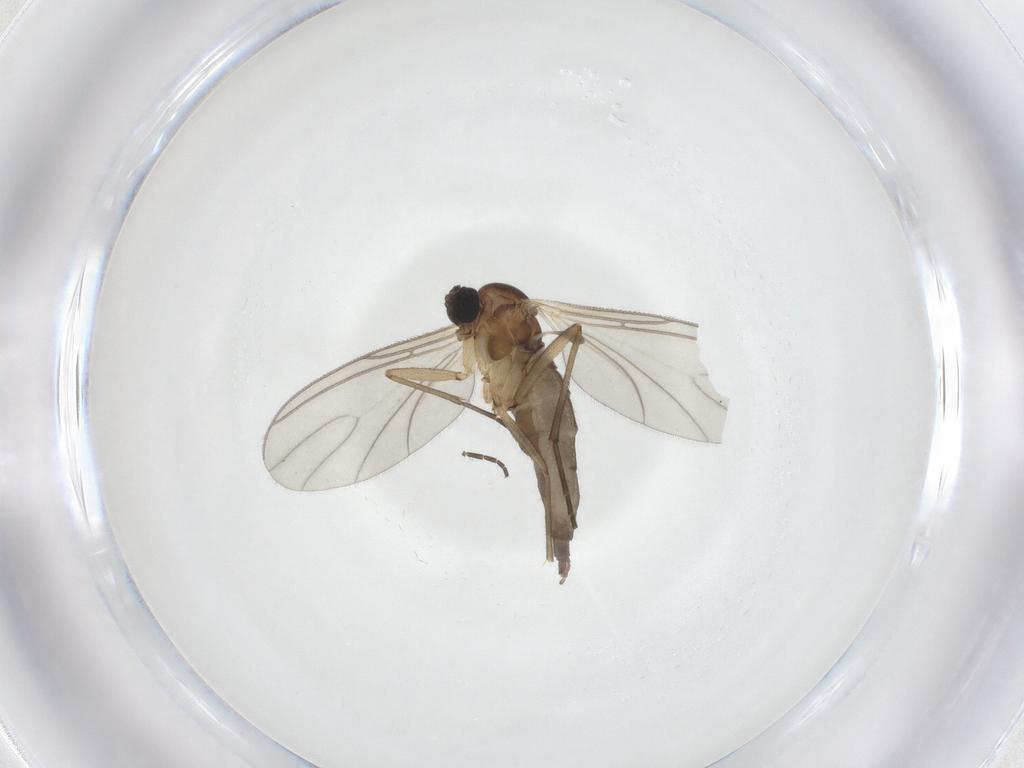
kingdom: Animalia
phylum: Arthropoda
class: Insecta
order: Diptera
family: Sciaridae
